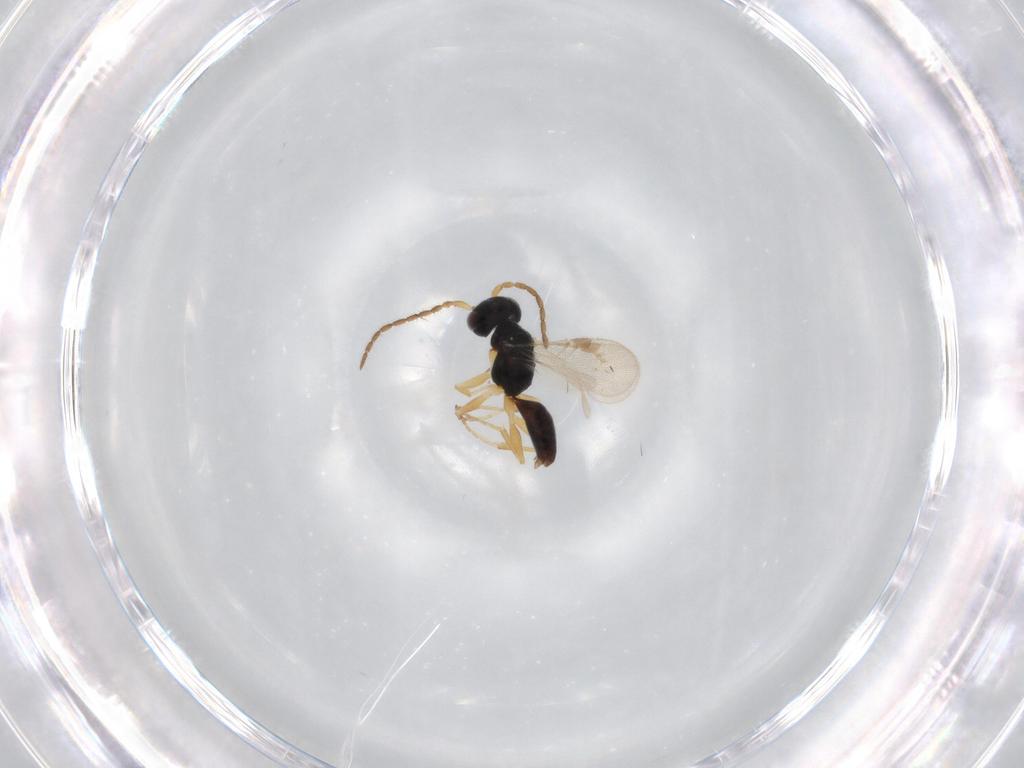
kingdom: Animalia
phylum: Arthropoda
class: Insecta
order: Hymenoptera
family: Dryinidae
